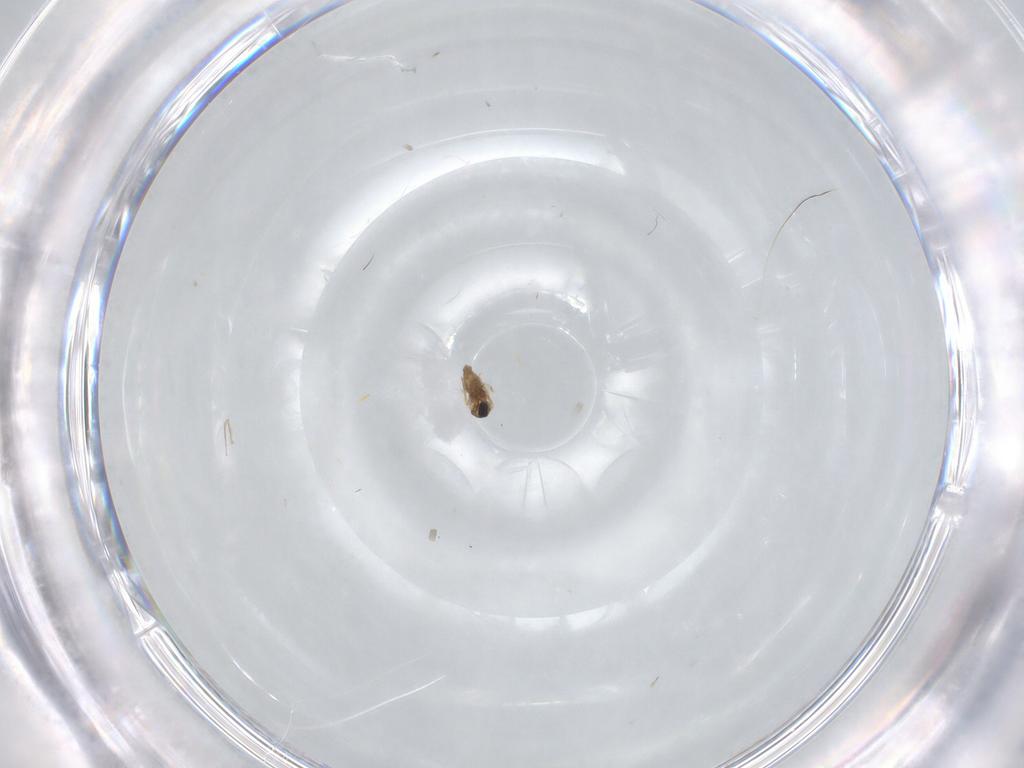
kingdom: Animalia
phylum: Arthropoda
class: Insecta
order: Diptera
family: Cecidomyiidae
